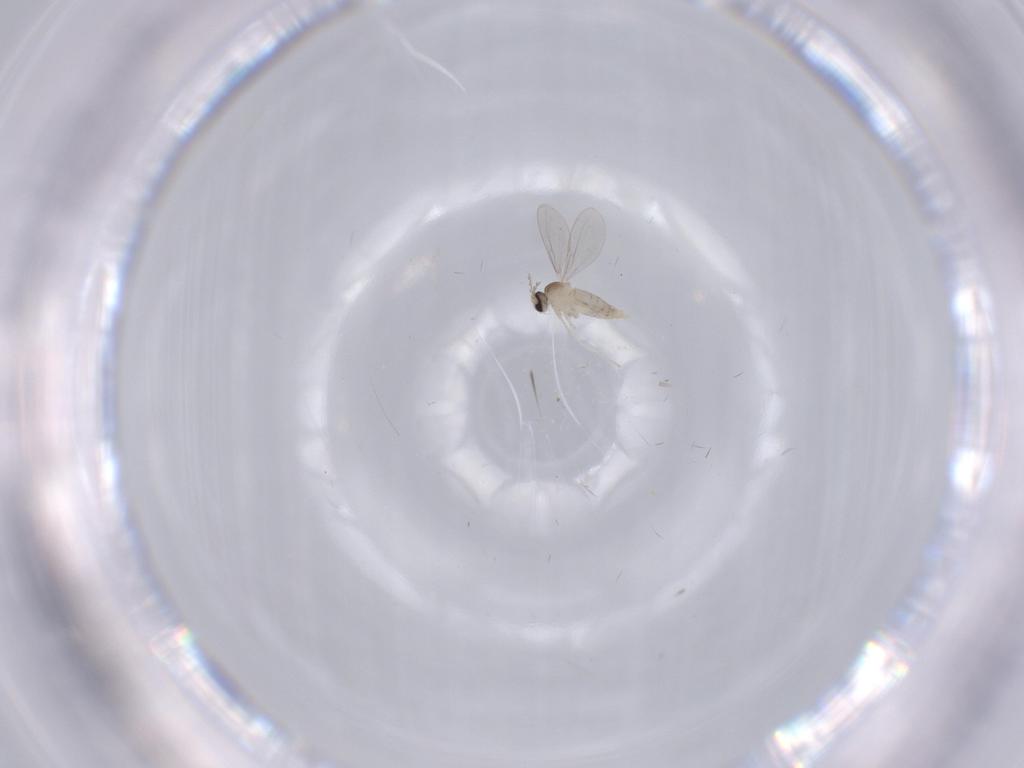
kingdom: Animalia
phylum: Arthropoda
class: Insecta
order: Diptera
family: Cecidomyiidae
